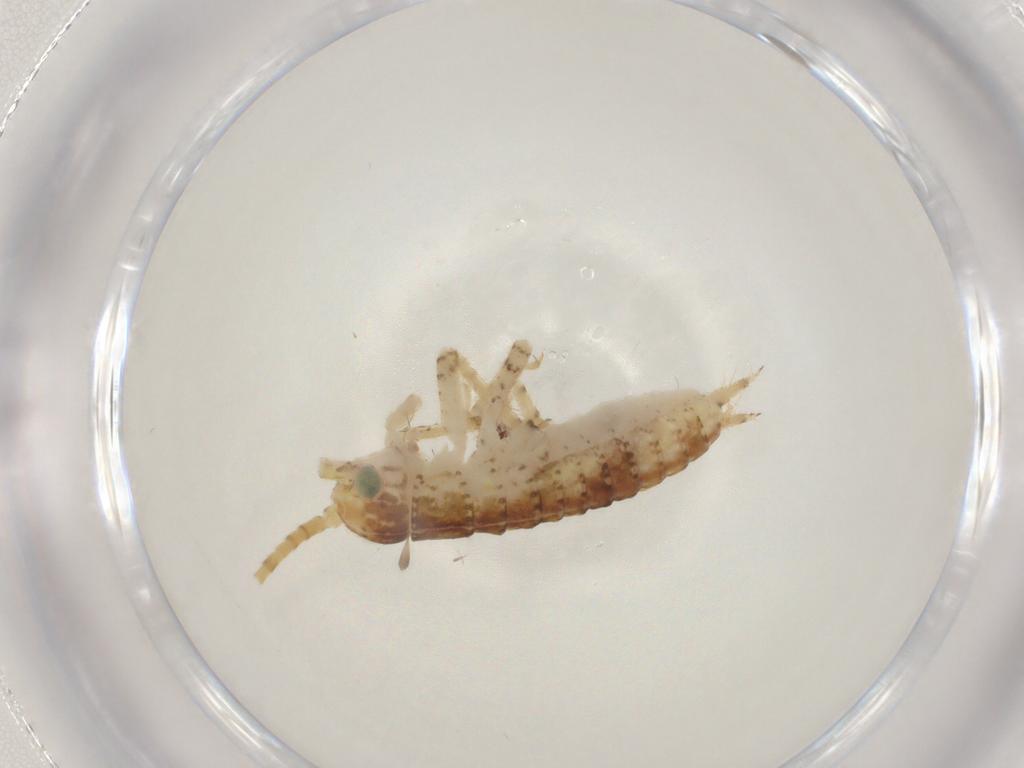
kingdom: Animalia
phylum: Arthropoda
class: Insecta
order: Orthoptera
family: Gryllidae
